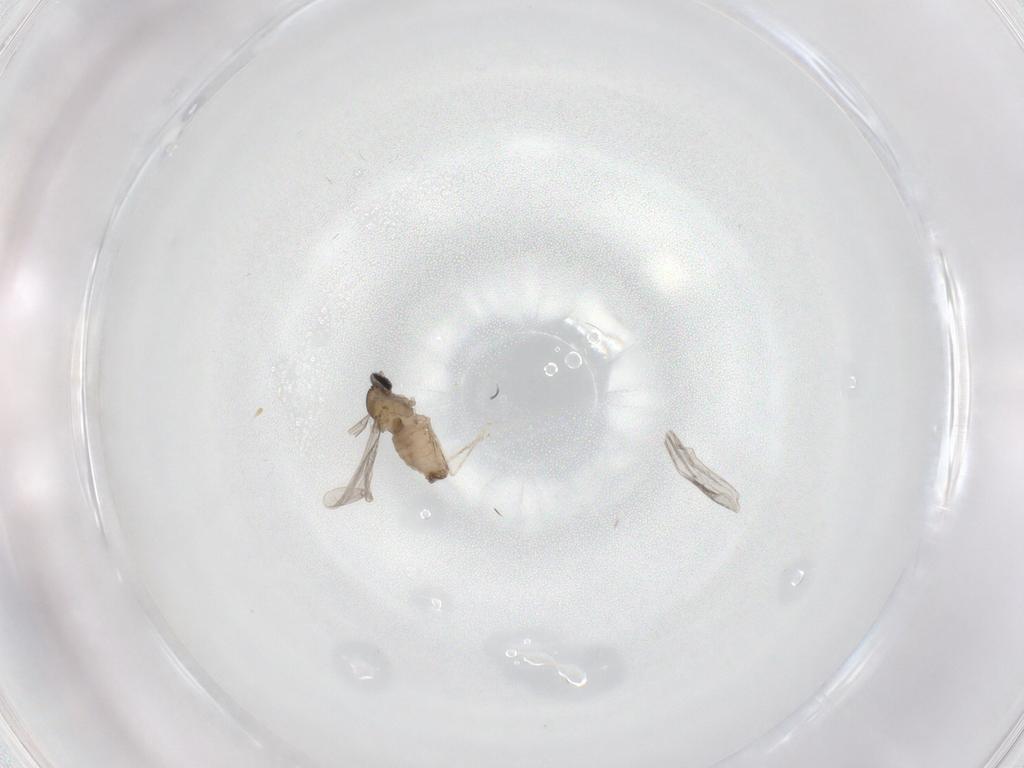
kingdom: Animalia
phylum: Arthropoda
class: Insecta
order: Diptera
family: Cecidomyiidae
